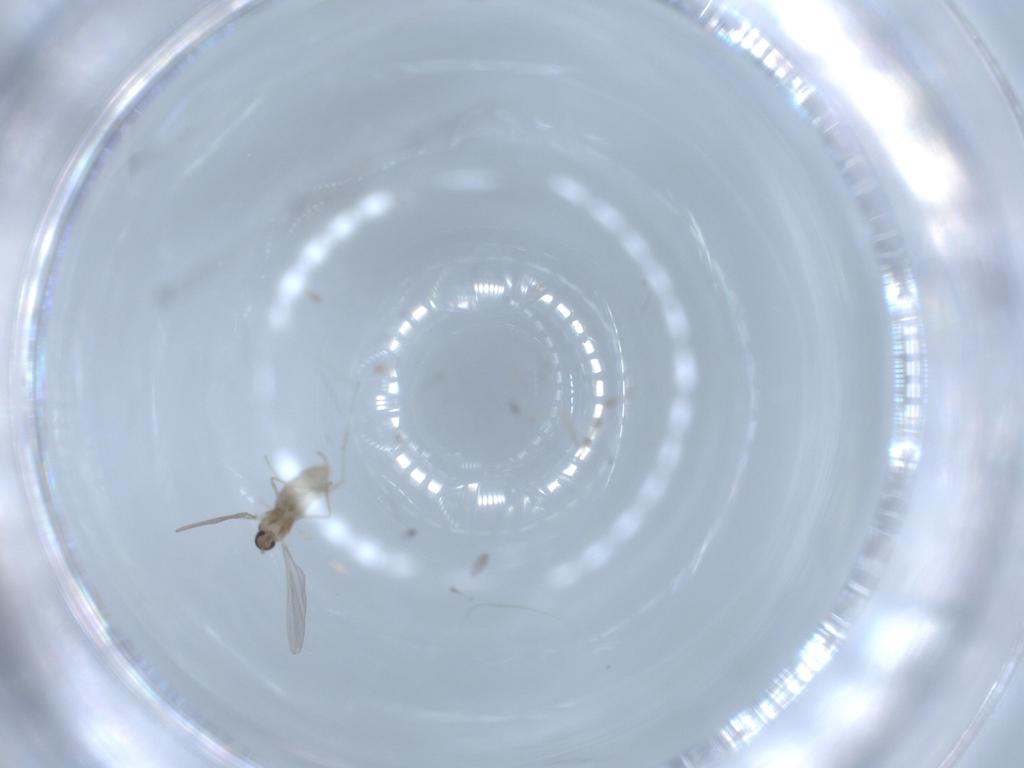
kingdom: Animalia
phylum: Arthropoda
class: Insecta
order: Diptera
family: Cecidomyiidae
